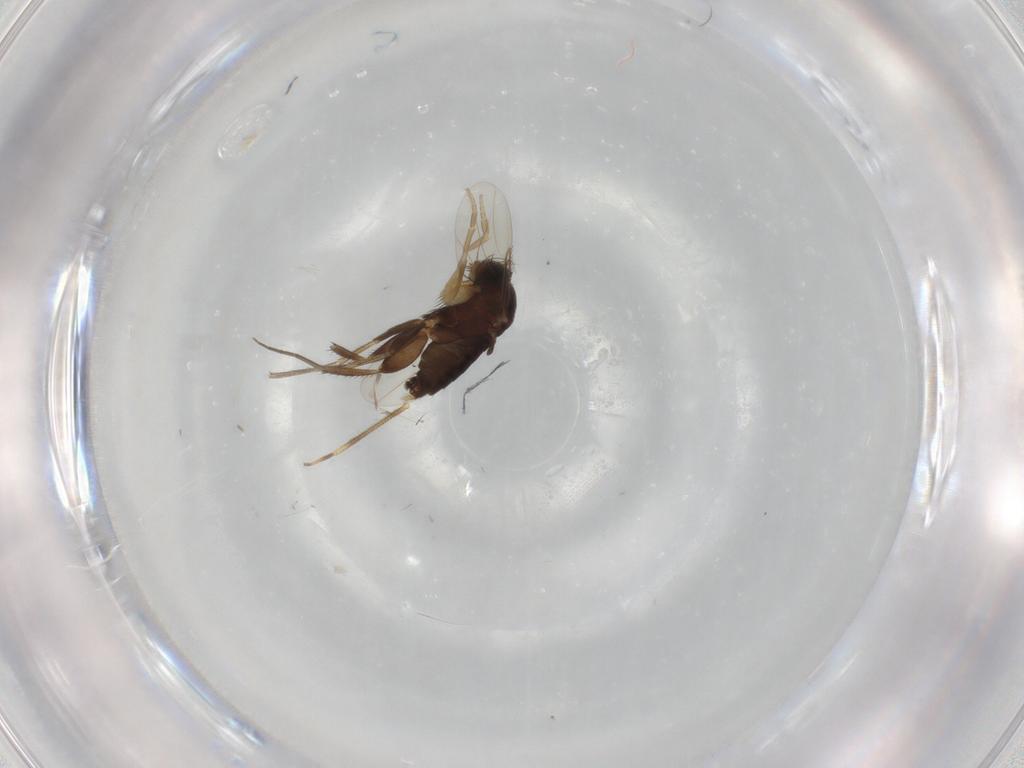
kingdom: Animalia
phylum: Arthropoda
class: Insecta
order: Diptera
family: Phoridae
